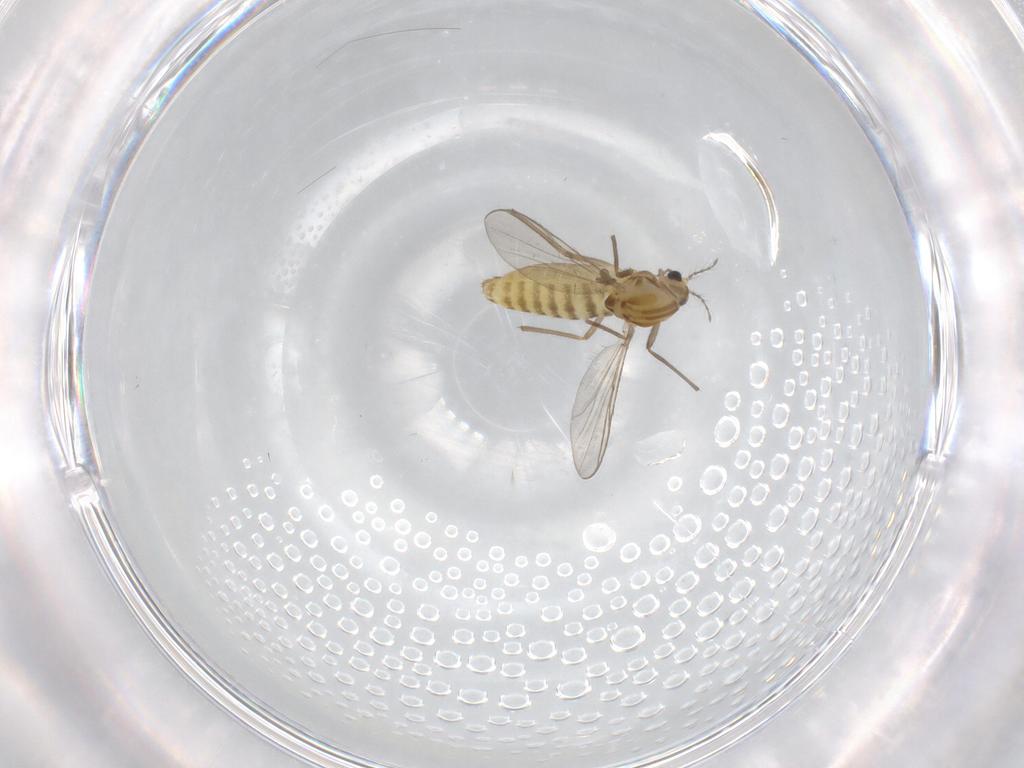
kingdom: Animalia
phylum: Arthropoda
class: Insecta
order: Diptera
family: Chironomidae
